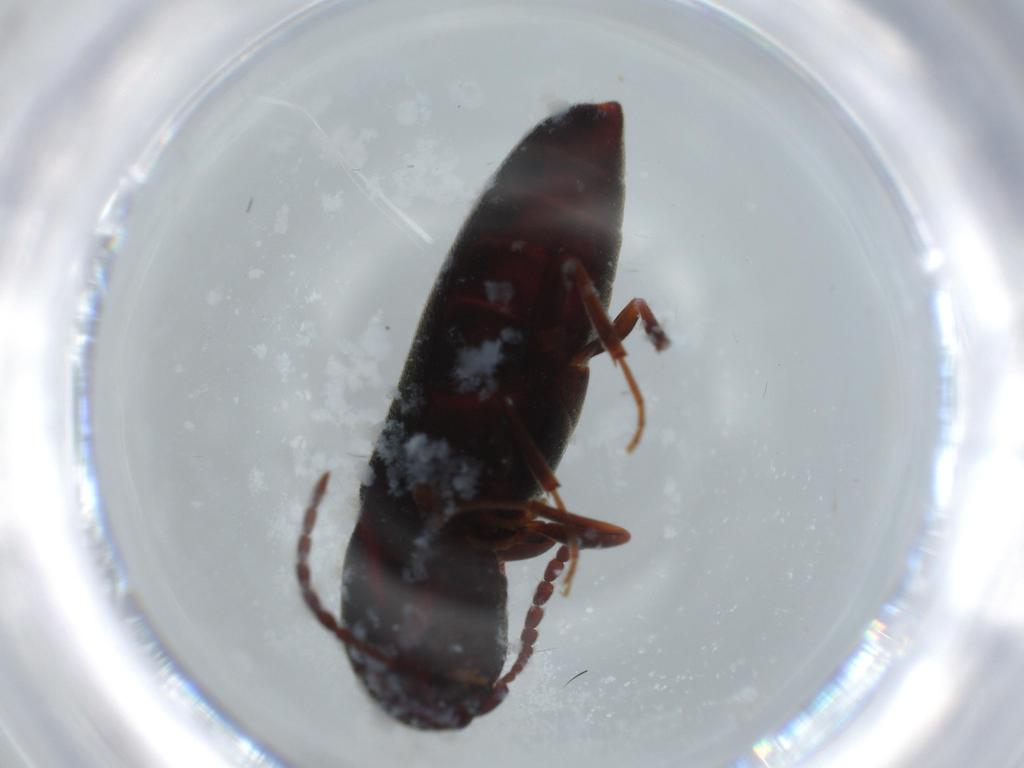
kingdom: Animalia
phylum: Arthropoda
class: Insecta
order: Coleoptera
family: Eucnemidae
